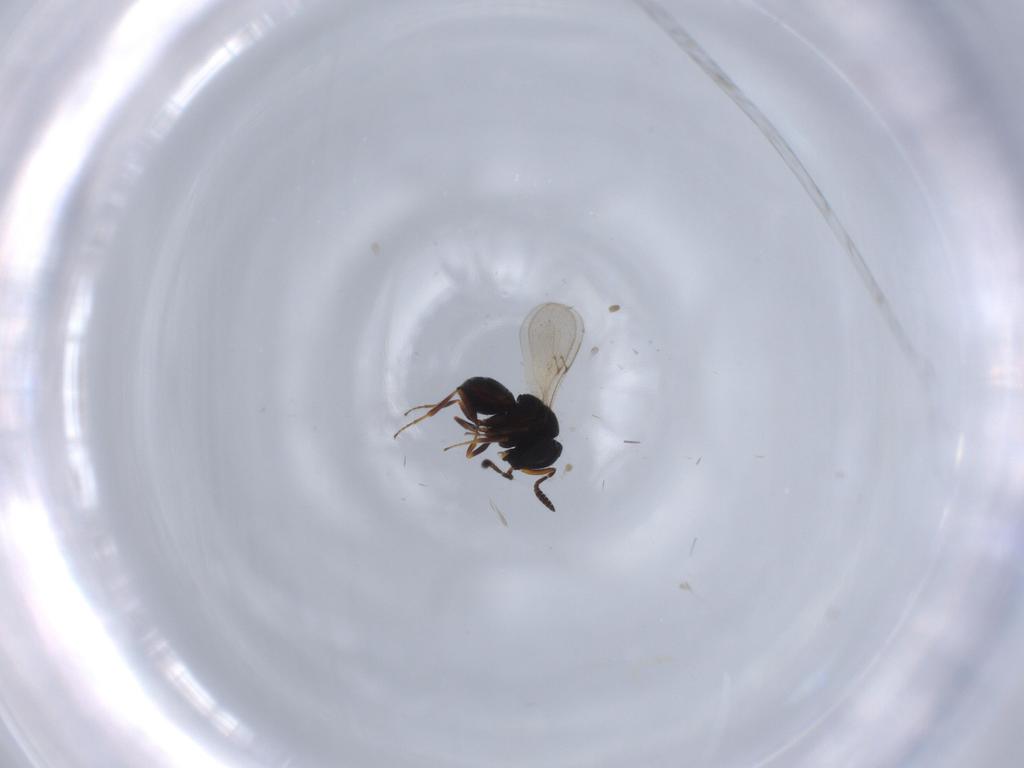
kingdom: Animalia
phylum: Arthropoda
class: Insecta
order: Hymenoptera
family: Scelionidae
